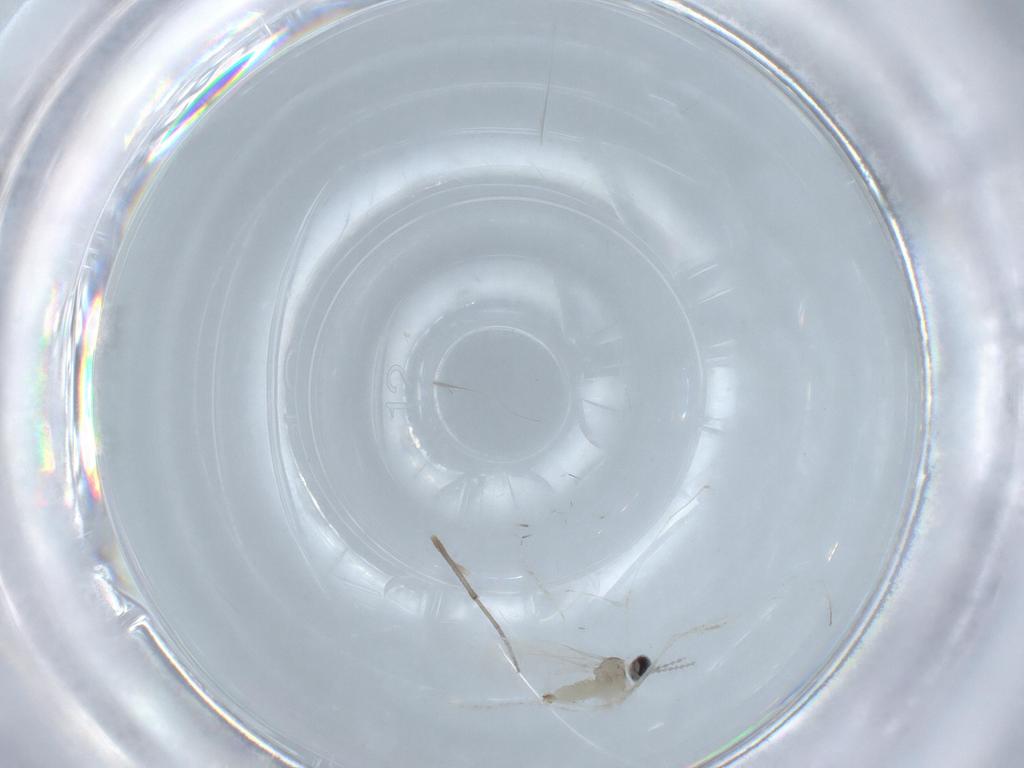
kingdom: Animalia
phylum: Arthropoda
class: Insecta
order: Diptera
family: Cecidomyiidae
